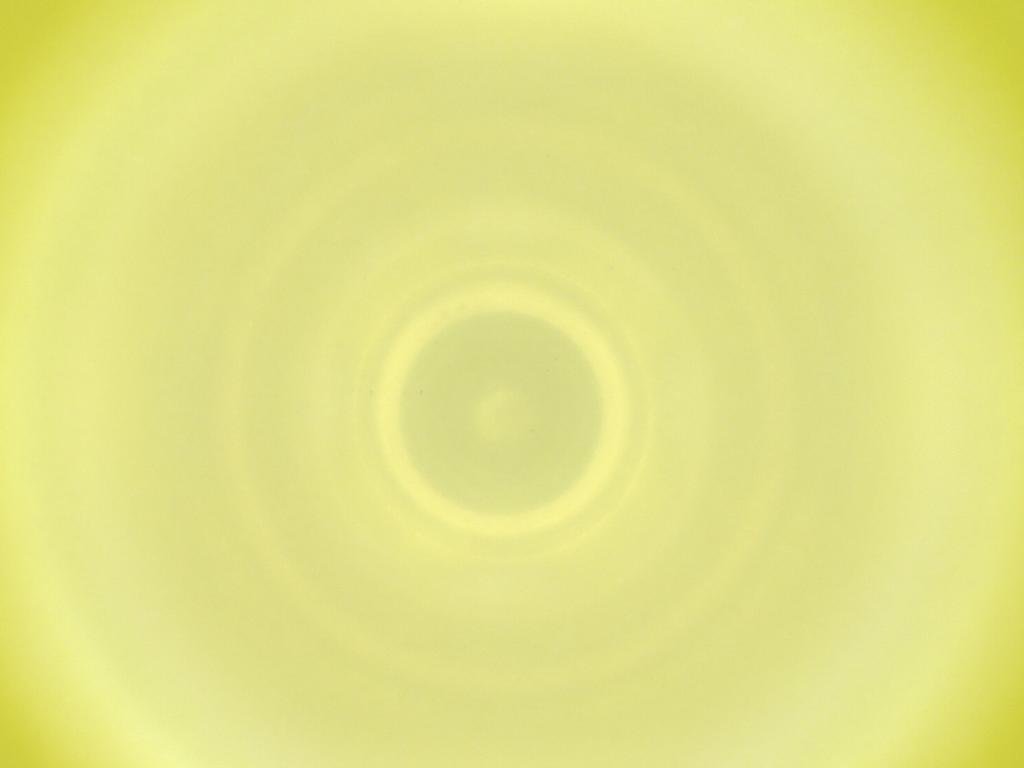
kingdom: Animalia
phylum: Arthropoda
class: Insecta
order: Diptera
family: Cecidomyiidae
